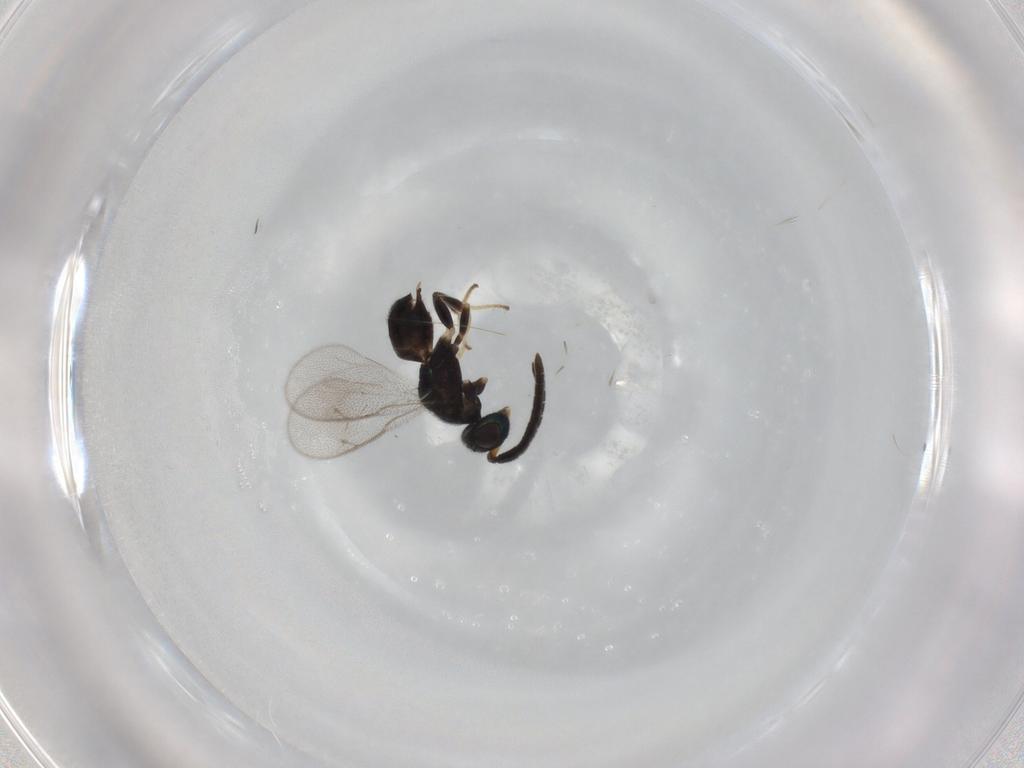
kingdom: Animalia
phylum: Arthropoda
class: Insecta
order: Hymenoptera
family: Eupelmidae
